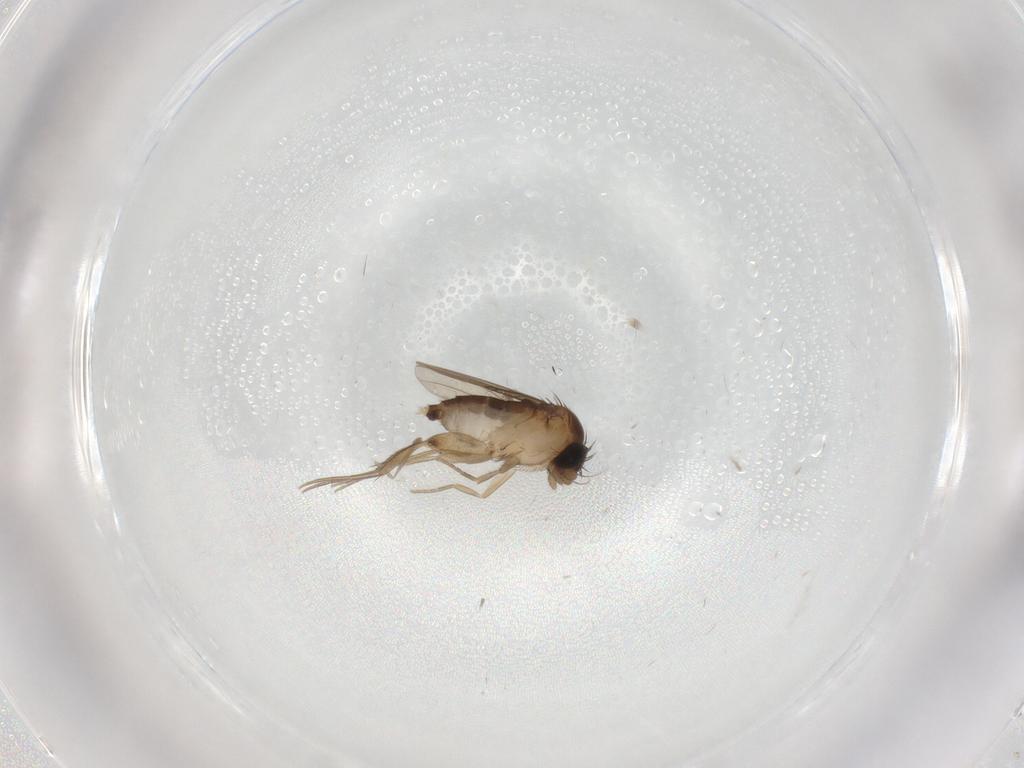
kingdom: Animalia
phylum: Arthropoda
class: Insecta
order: Diptera
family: Phoridae
